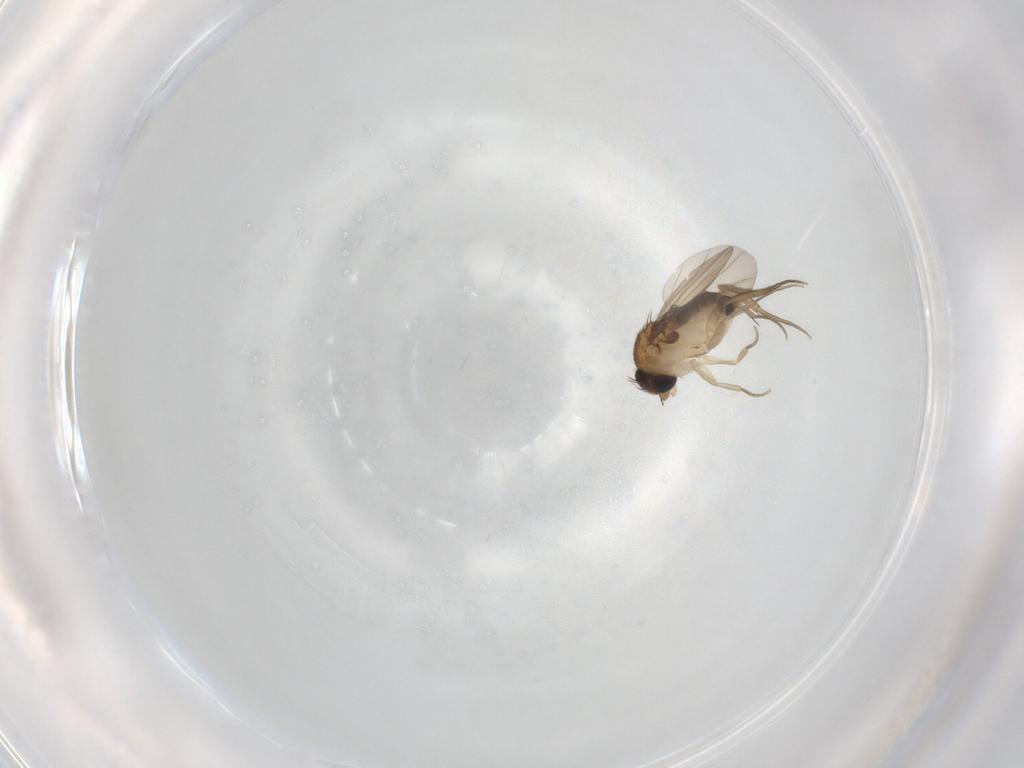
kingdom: Animalia
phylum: Arthropoda
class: Insecta
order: Diptera
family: Phoridae
